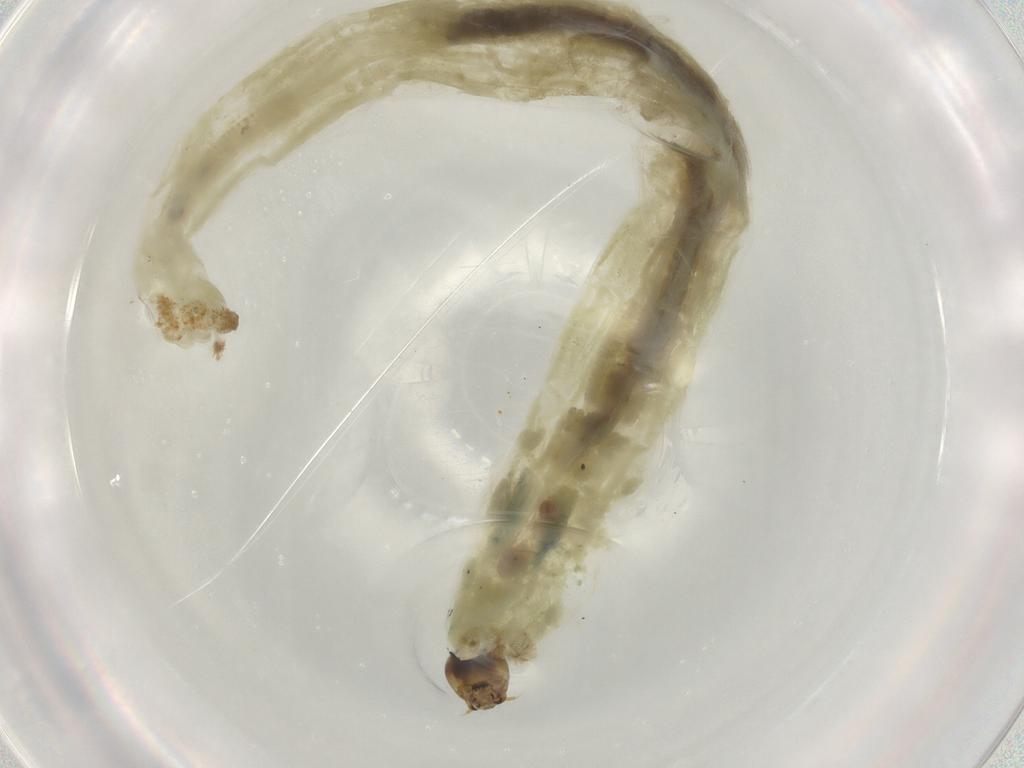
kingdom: Animalia
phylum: Arthropoda
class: Insecta
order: Diptera
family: Chironomidae
